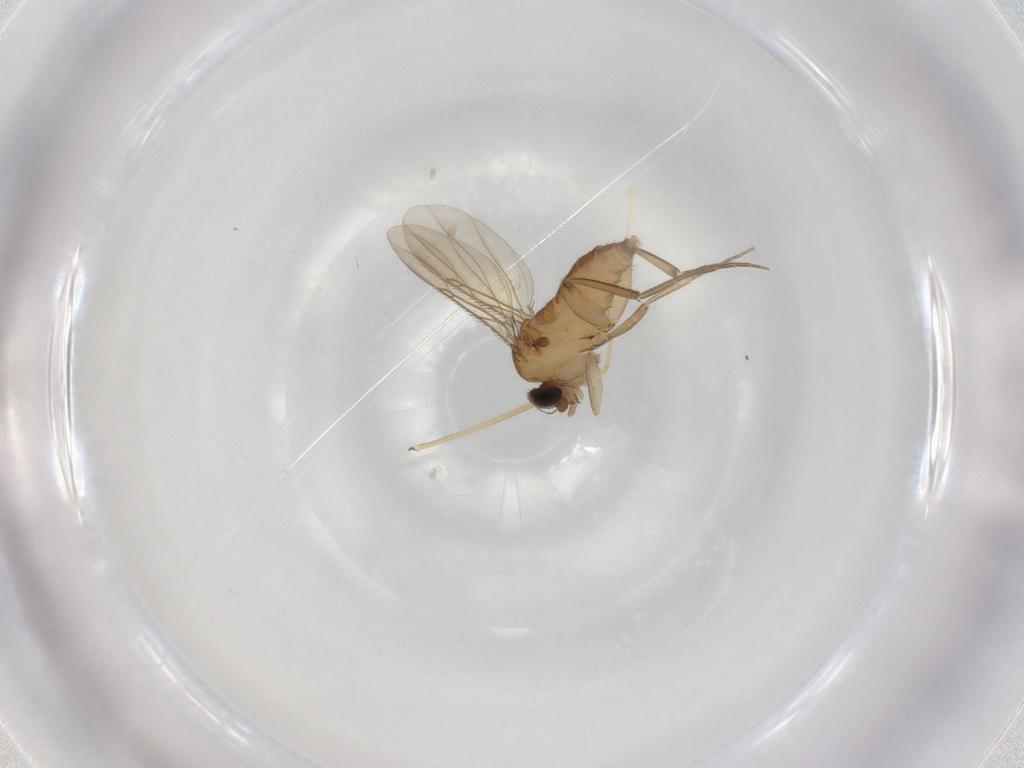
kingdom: Animalia
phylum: Arthropoda
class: Insecta
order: Diptera
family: Phoridae
